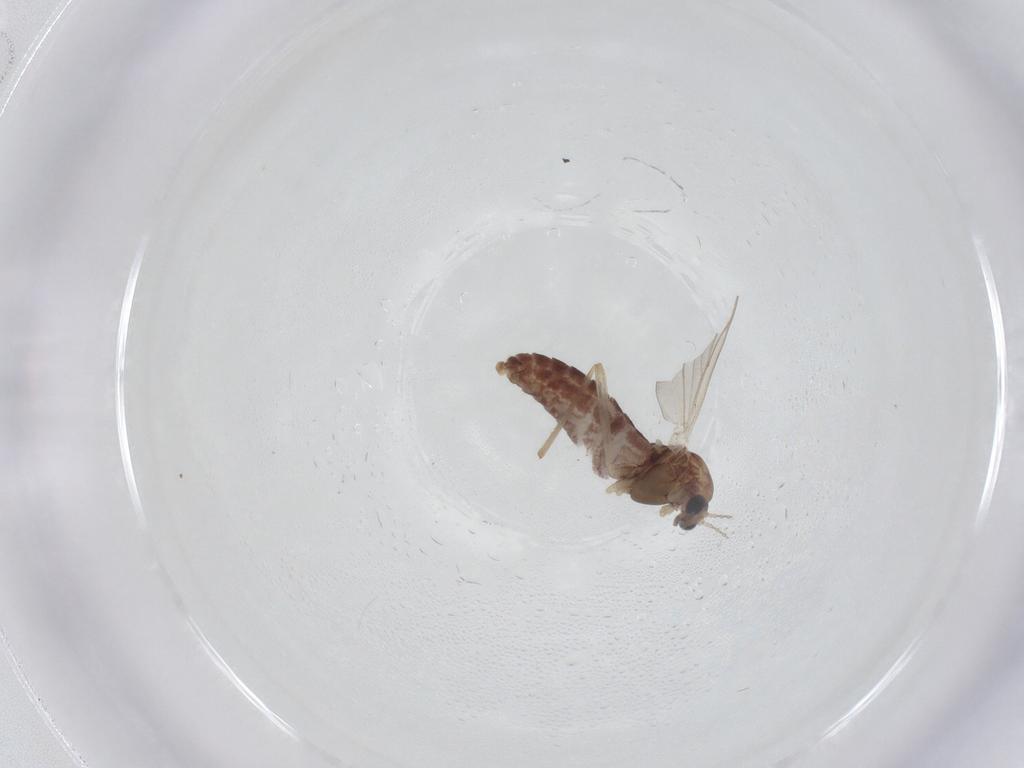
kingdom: Animalia
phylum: Arthropoda
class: Insecta
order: Diptera
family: Chironomidae
